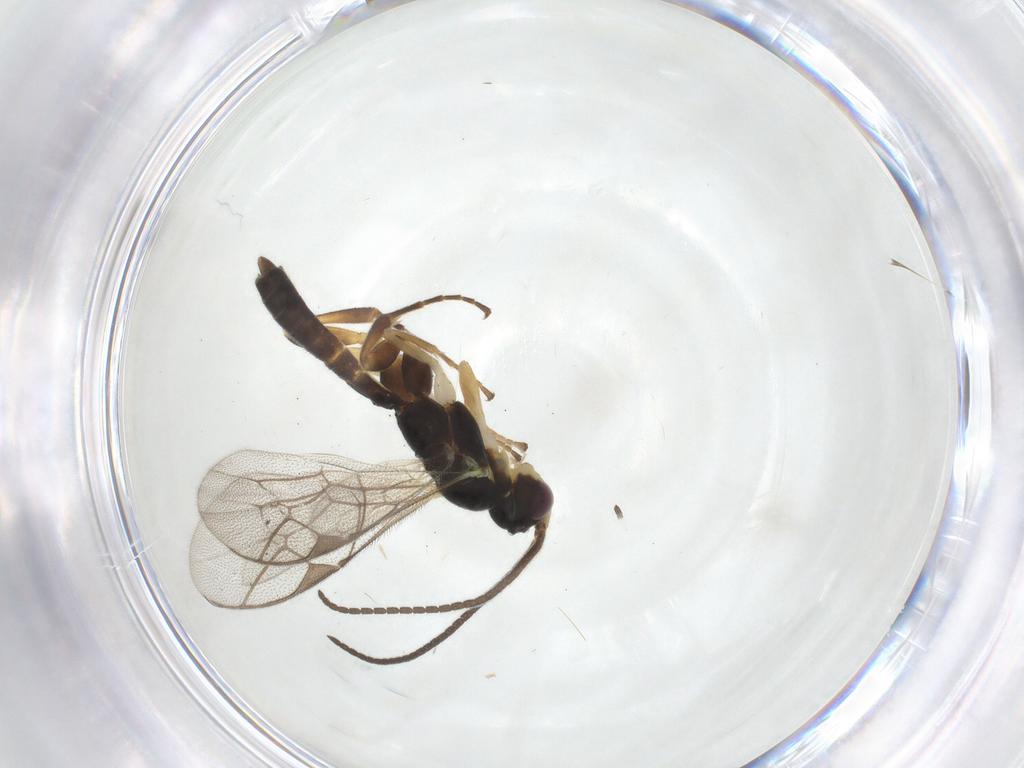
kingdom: Animalia
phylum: Arthropoda
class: Insecta
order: Hymenoptera
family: Ichneumonidae
